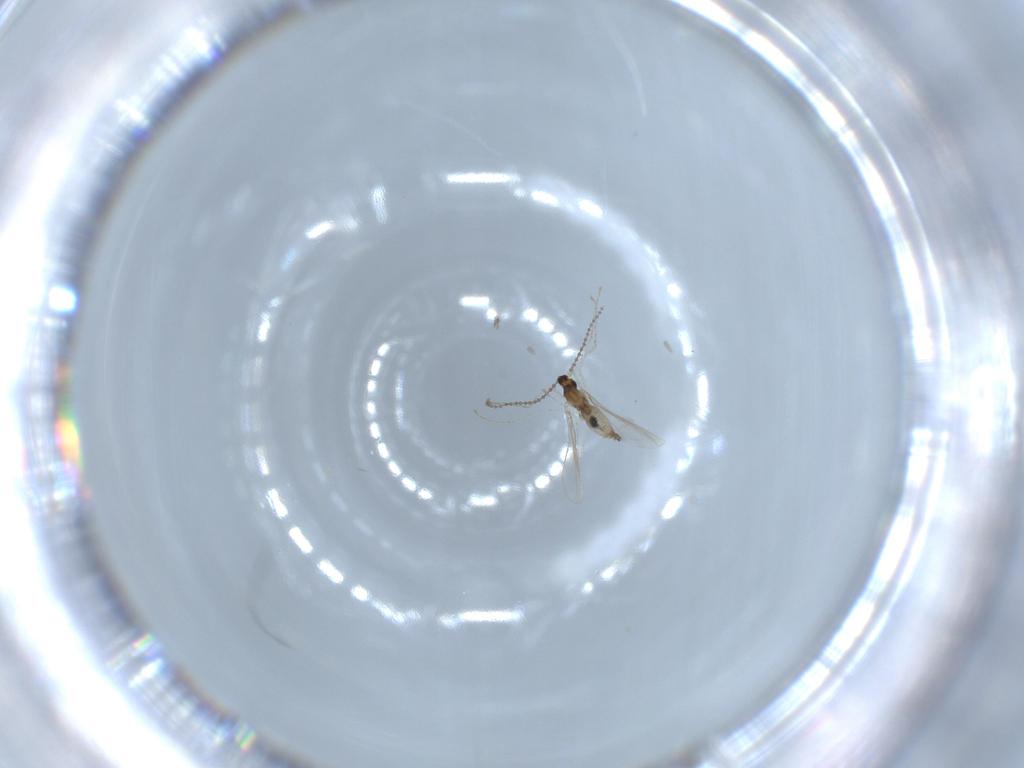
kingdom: Animalia
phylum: Arthropoda
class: Insecta
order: Diptera
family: Cecidomyiidae
